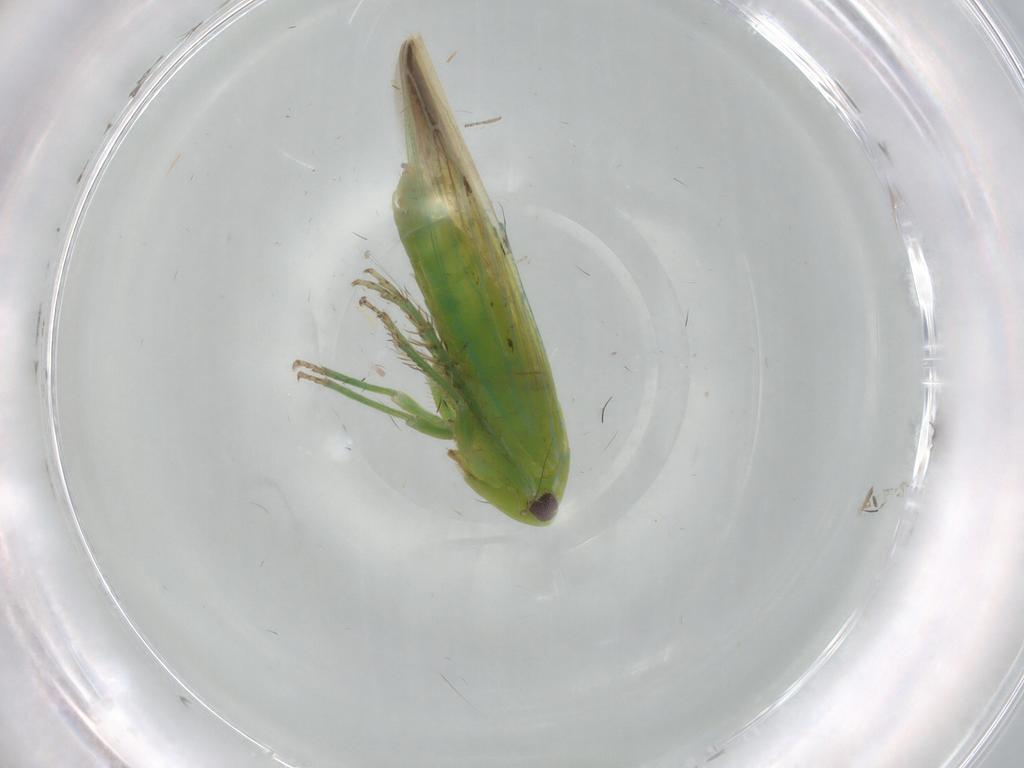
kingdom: Animalia
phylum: Arthropoda
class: Insecta
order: Hemiptera
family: Cicadellidae
